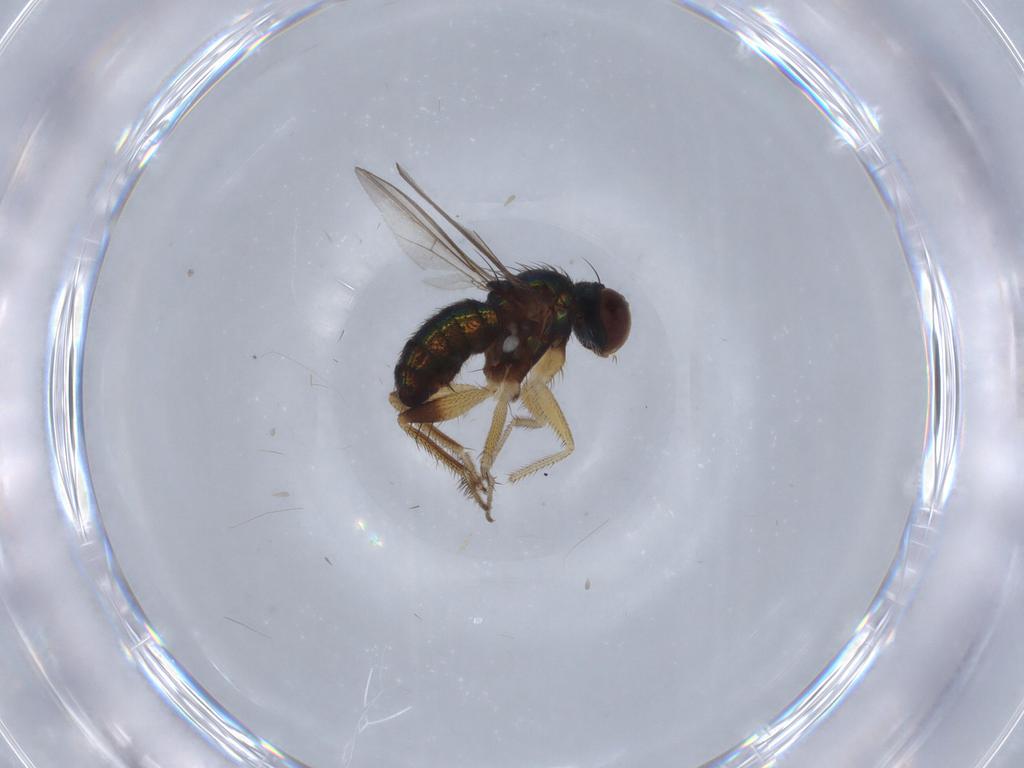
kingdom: Animalia
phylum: Arthropoda
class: Insecta
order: Diptera
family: Dolichopodidae
